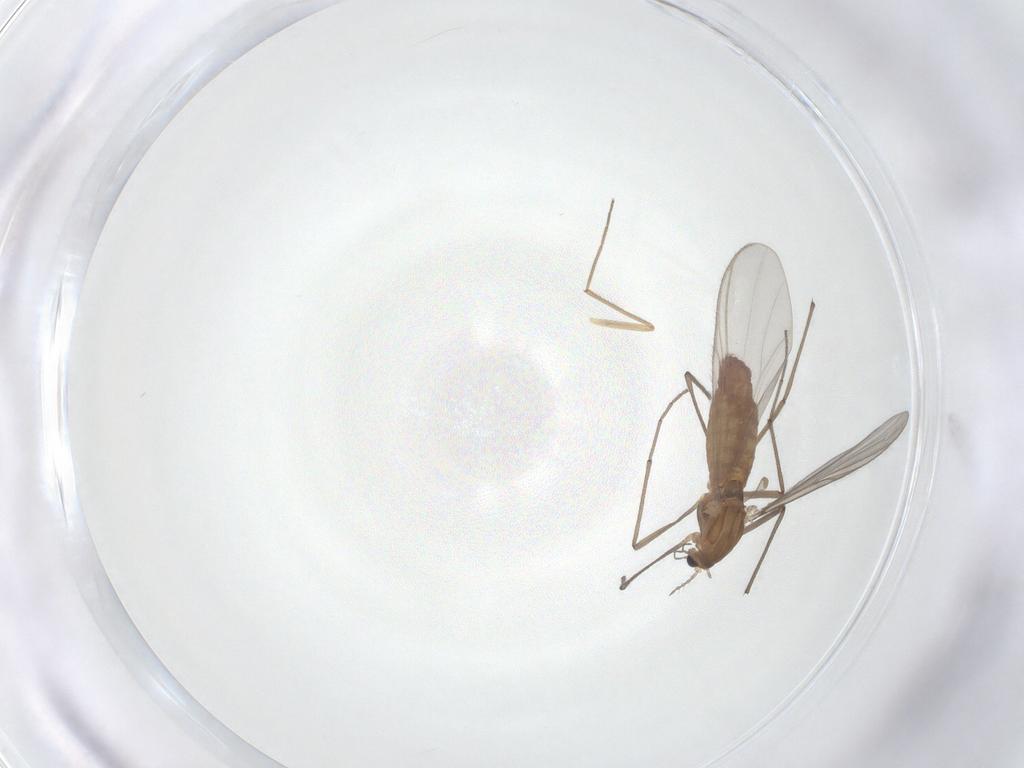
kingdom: Animalia
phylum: Arthropoda
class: Insecta
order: Diptera
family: Chironomidae
